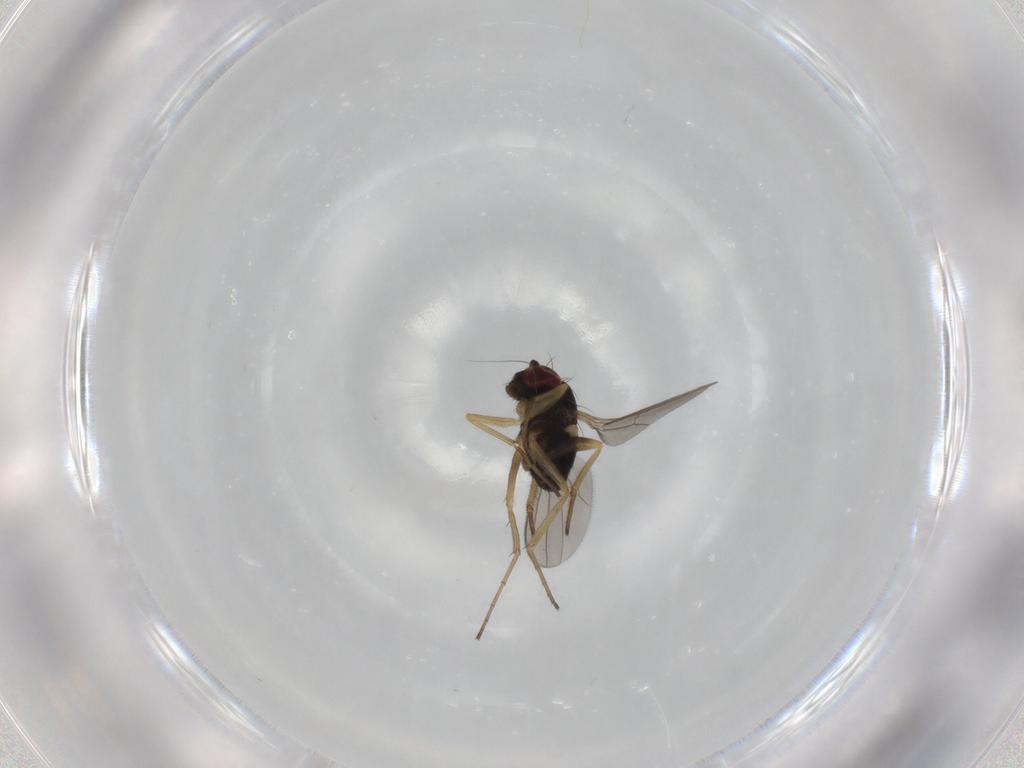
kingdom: Animalia
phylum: Arthropoda
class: Insecta
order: Diptera
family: Dolichopodidae
